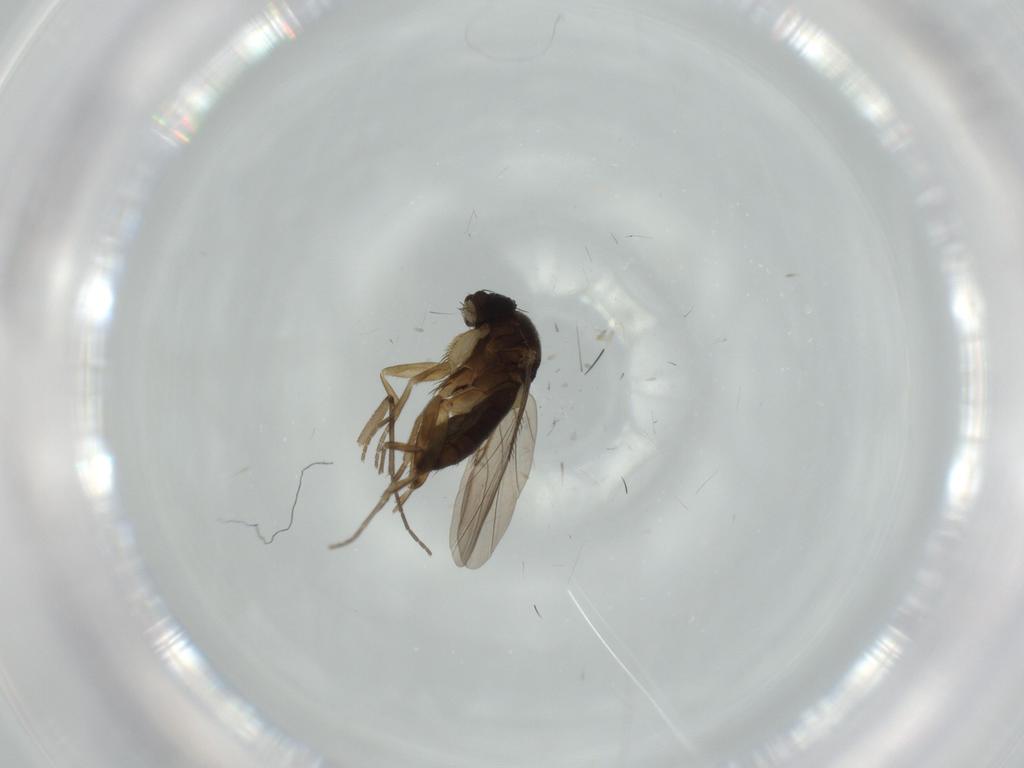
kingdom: Animalia
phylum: Arthropoda
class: Insecta
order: Diptera
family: Phoridae
